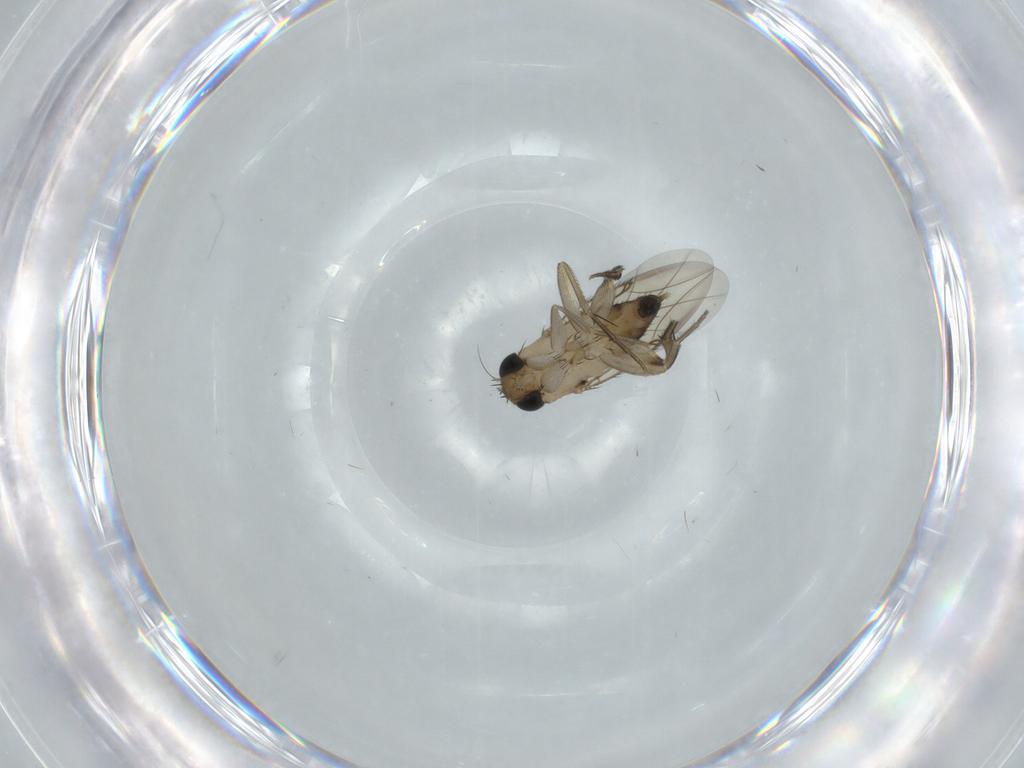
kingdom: Animalia
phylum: Arthropoda
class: Insecta
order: Diptera
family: Phoridae
